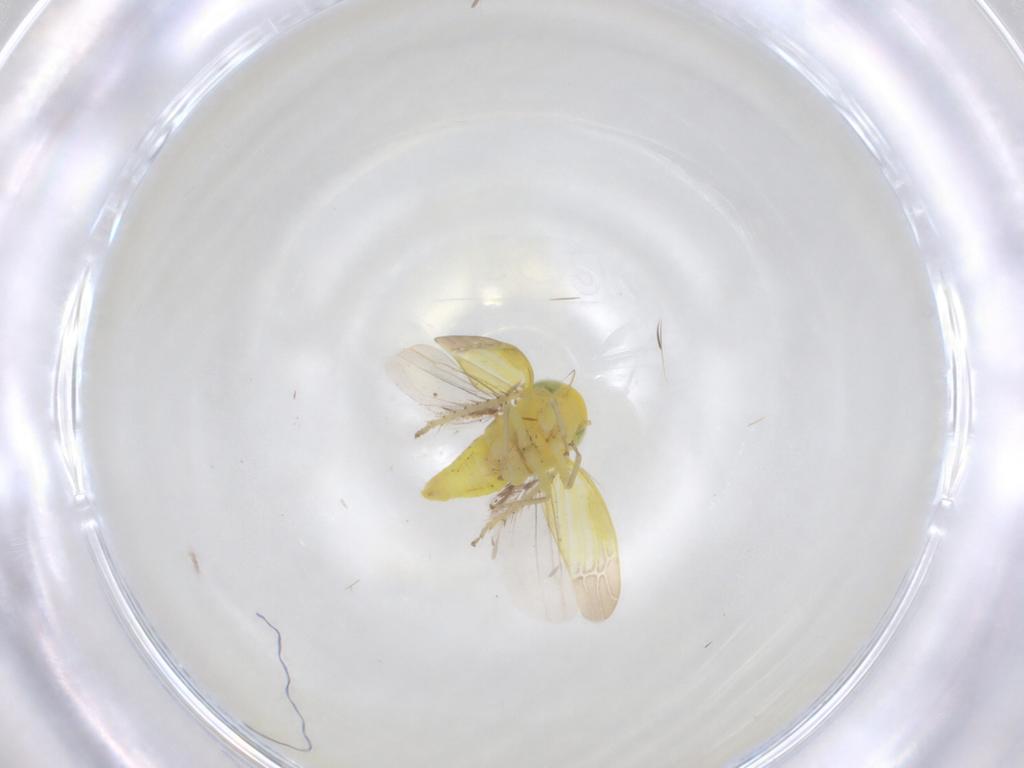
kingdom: Animalia
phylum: Arthropoda
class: Insecta
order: Hemiptera
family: Cicadellidae
